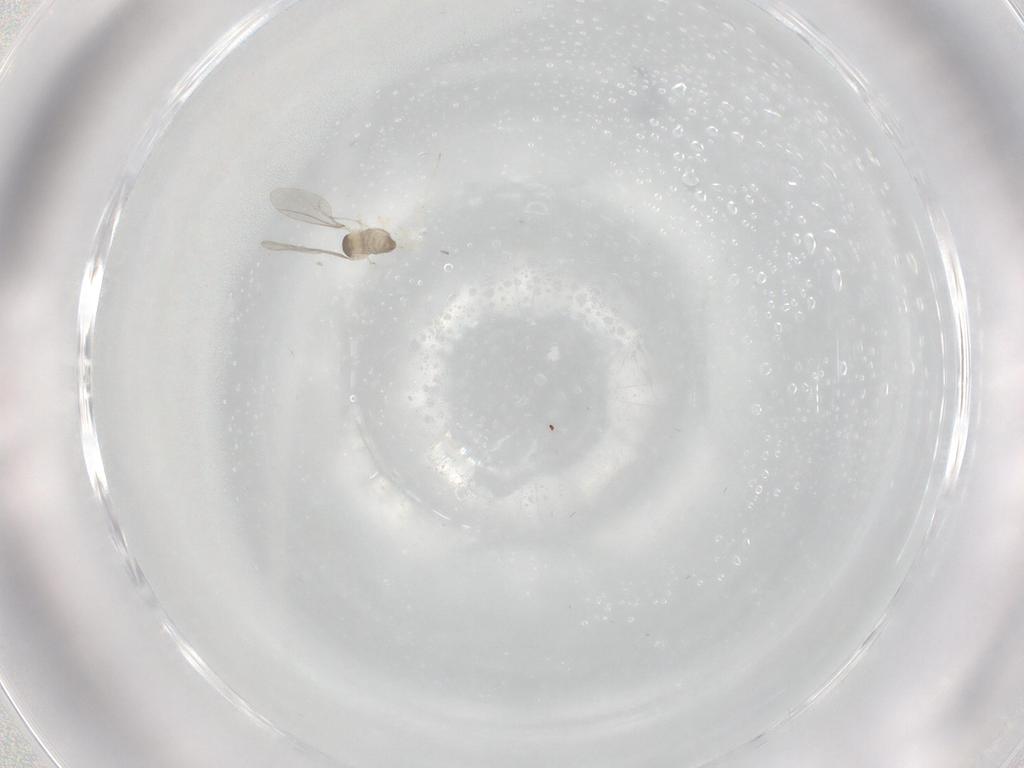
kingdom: Animalia
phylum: Arthropoda
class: Insecta
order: Diptera
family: Cecidomyiidae
